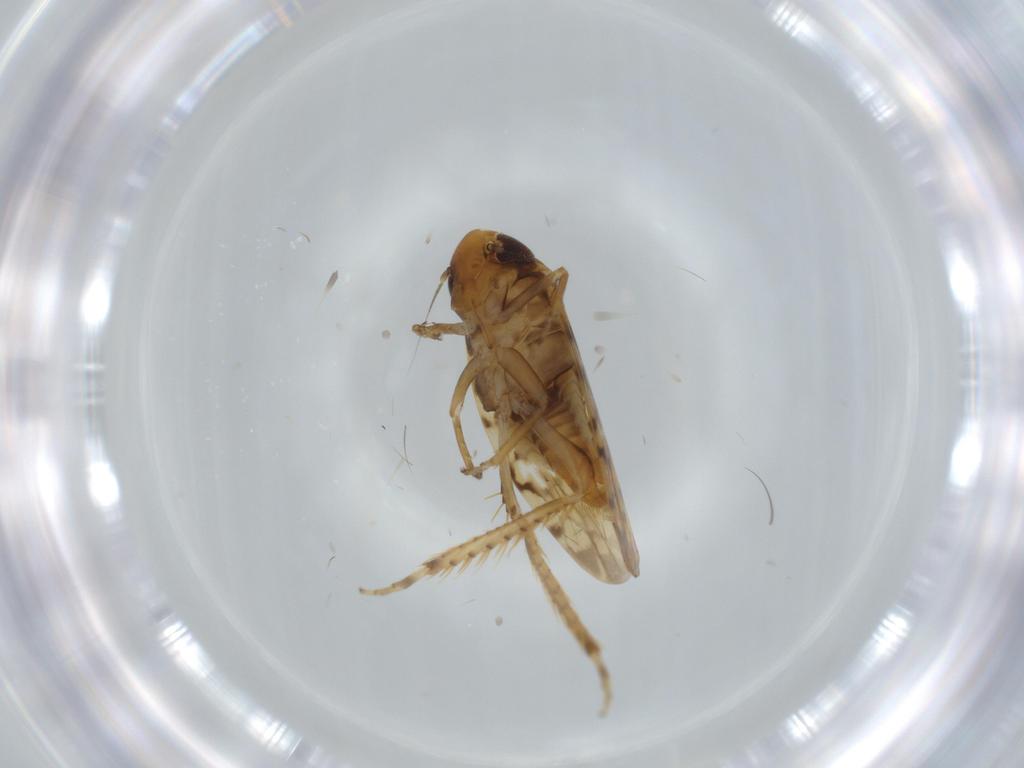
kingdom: Animalia
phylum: Arthropoda
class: Insecta
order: Hemiptera
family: Cicadellidae
